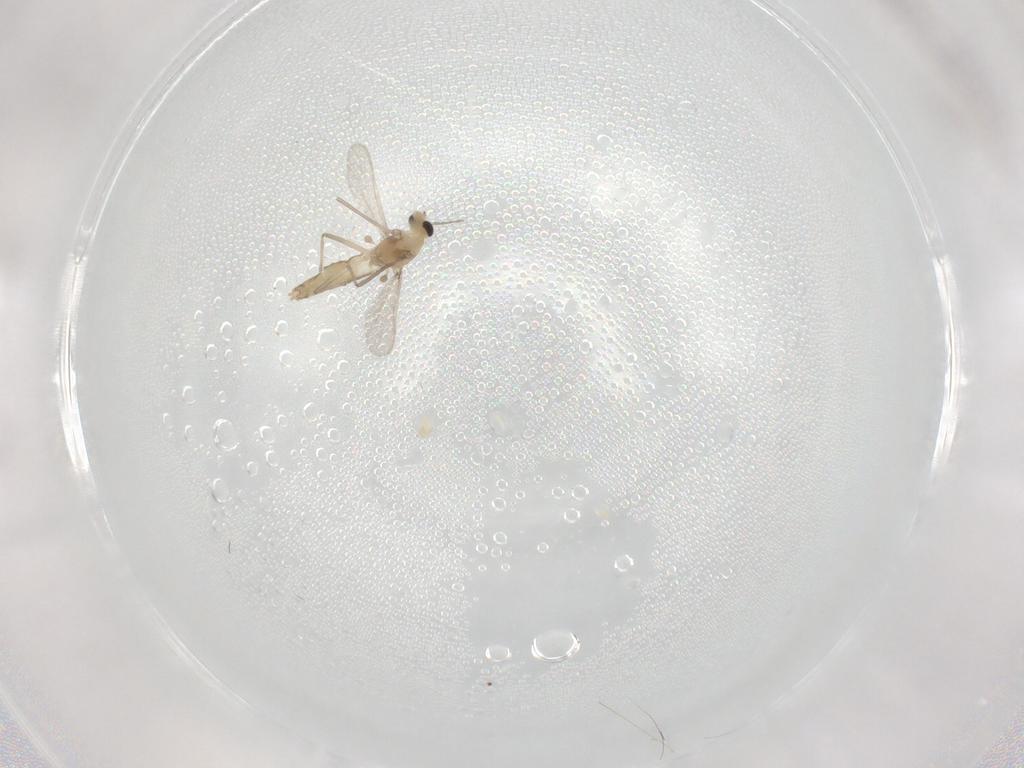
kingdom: Animalia
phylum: Arthropoda
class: Insecta
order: Diptera
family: Chironomidae
